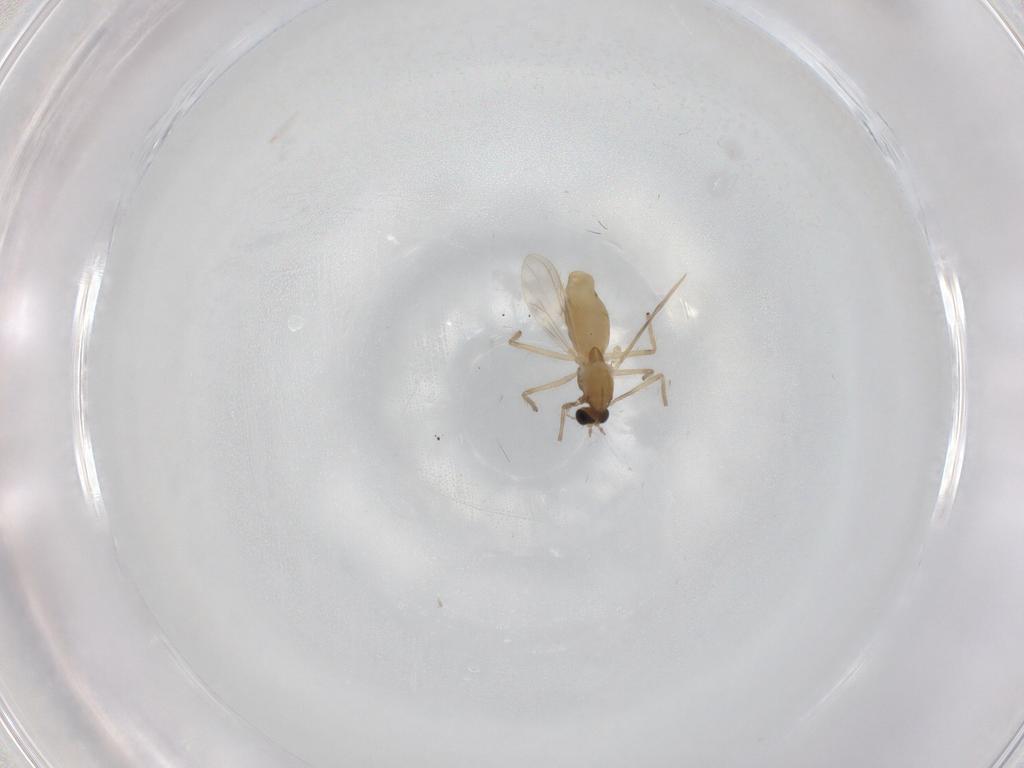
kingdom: Animalia
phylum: Arthropoda
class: Insecta
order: Diptera
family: Chironomidae
